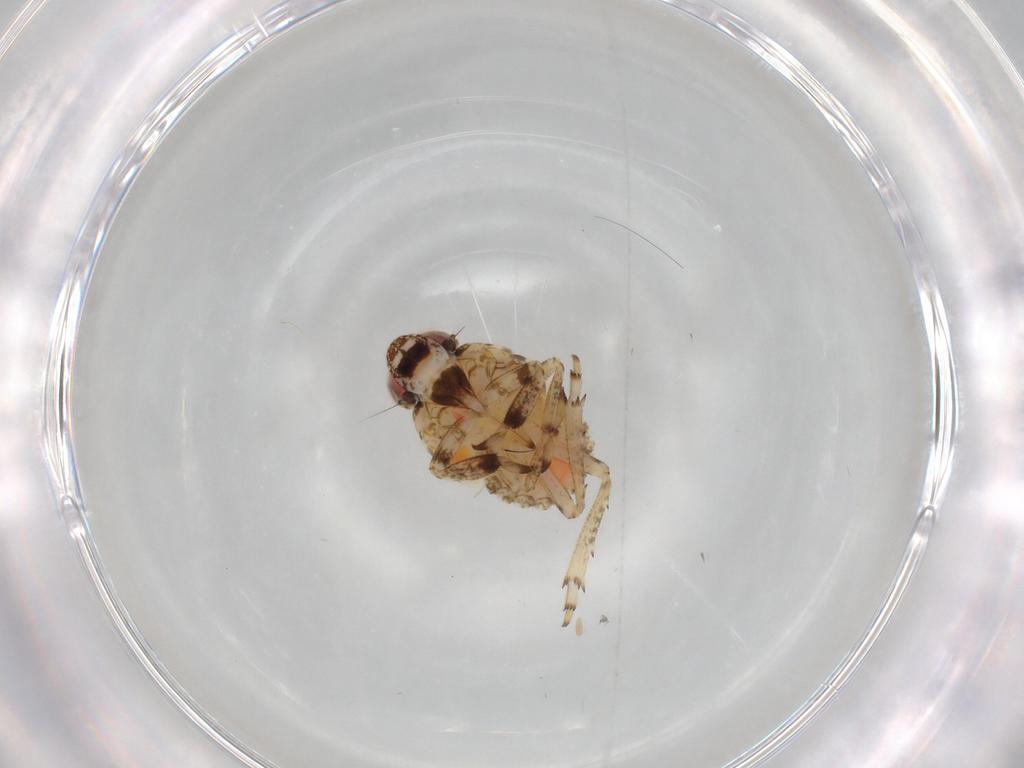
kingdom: Animalia
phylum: Arthropoda
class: Insecta
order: Hemiptera
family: Issidae
